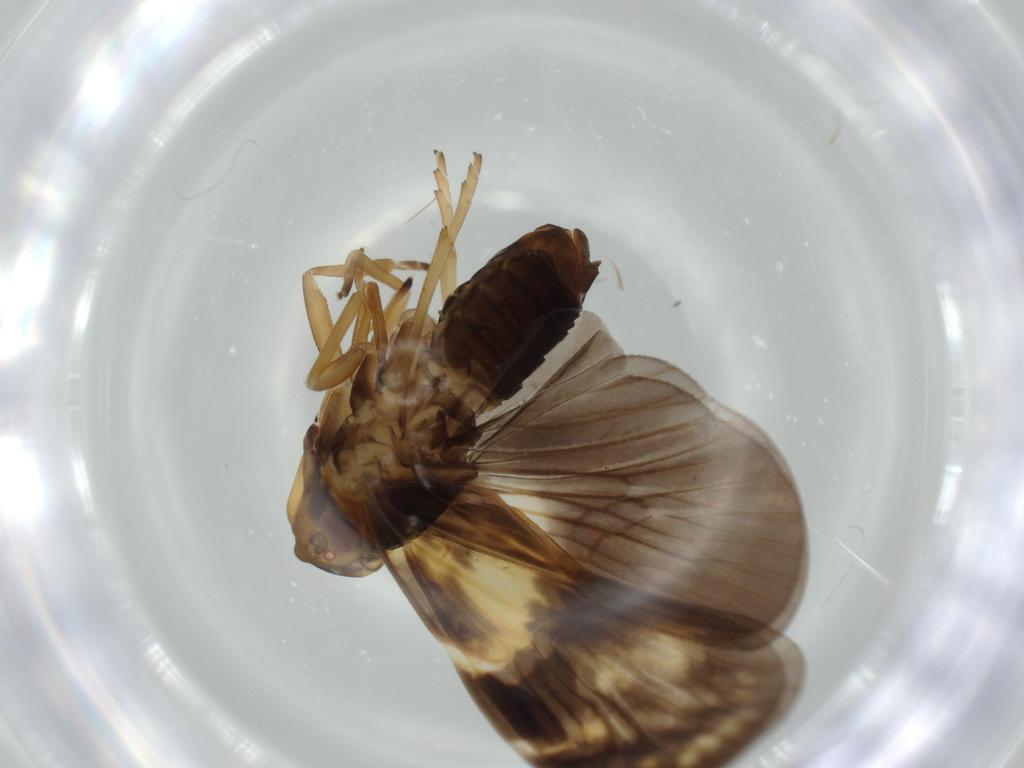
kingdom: Animalia
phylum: Arthropoda
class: Insecta
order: Hemiptera
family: Cixiidae
